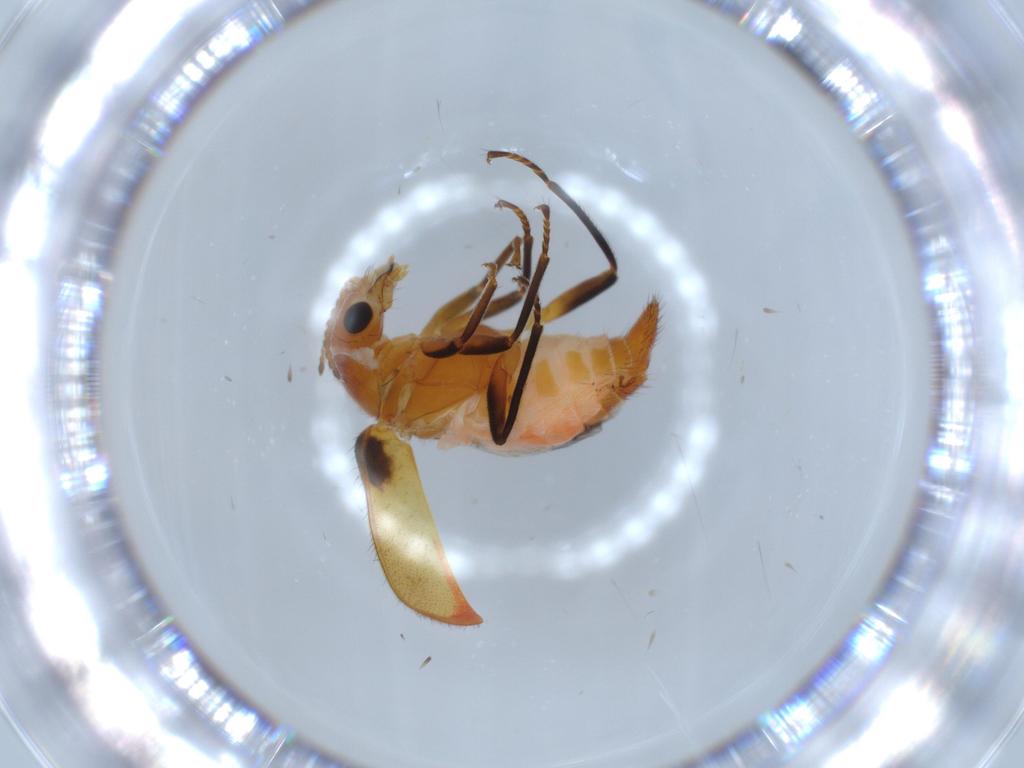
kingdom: Animalia
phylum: Arthropoda
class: Insecta
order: Coleoptera
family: Melyridae
